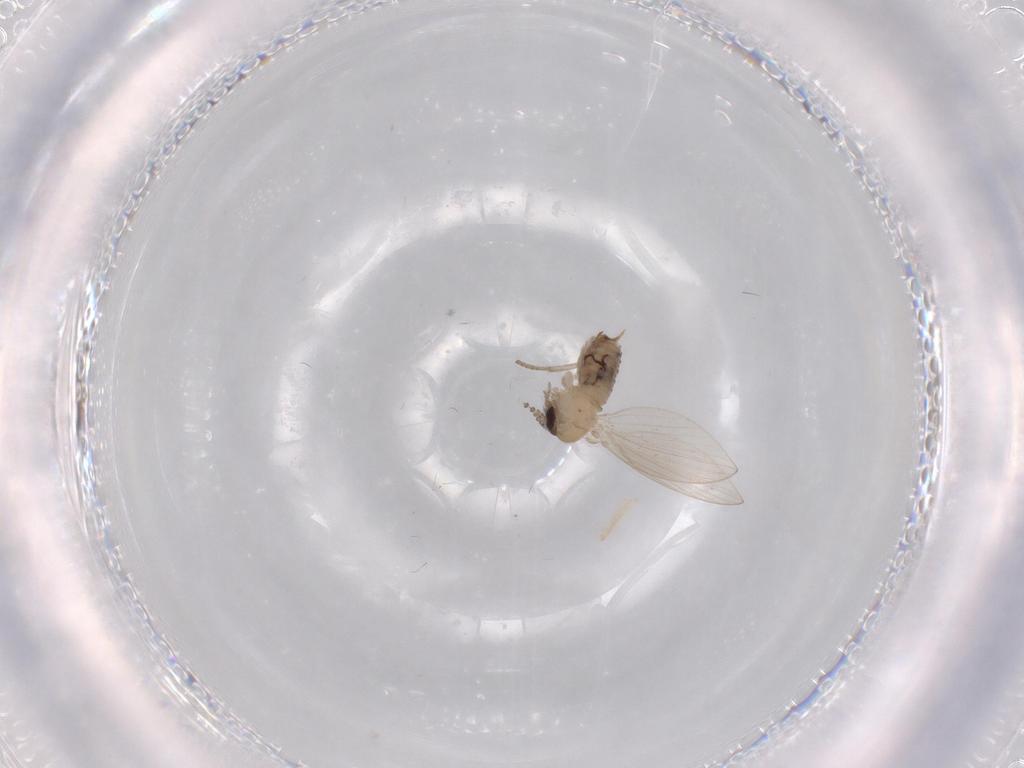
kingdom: Animalia
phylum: Arthropoda
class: Insecta
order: Diptera
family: Psychodidae
